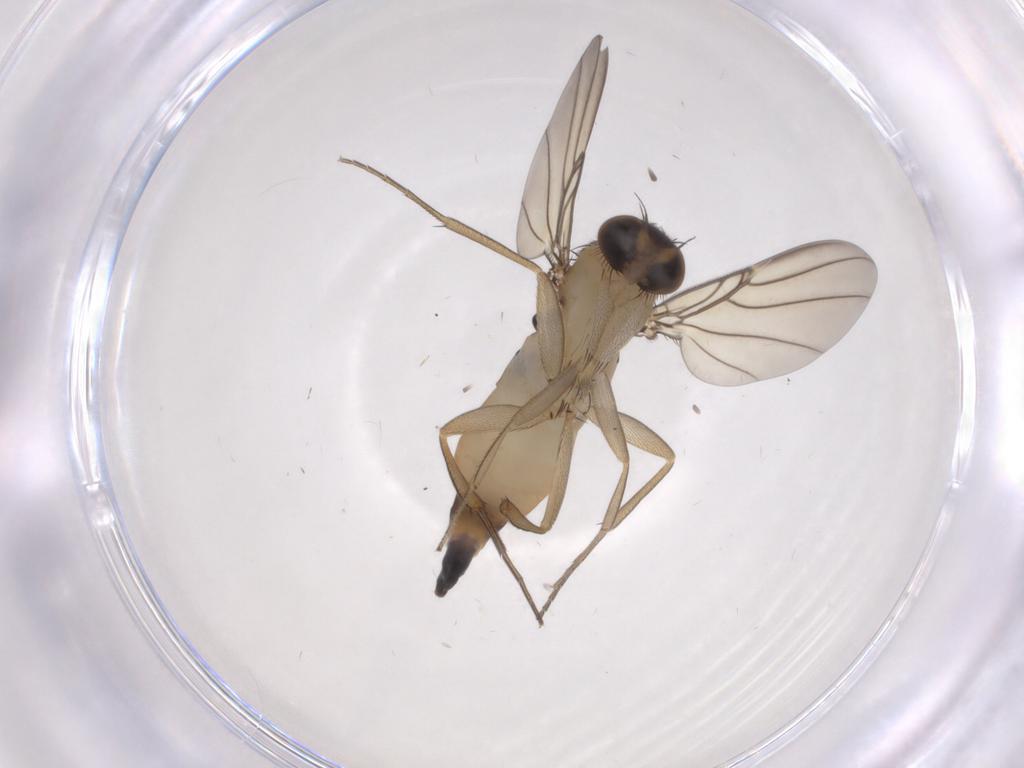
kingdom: Animalia
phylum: Arthropoda
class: Insecta
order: Diptera
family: Phoridae
